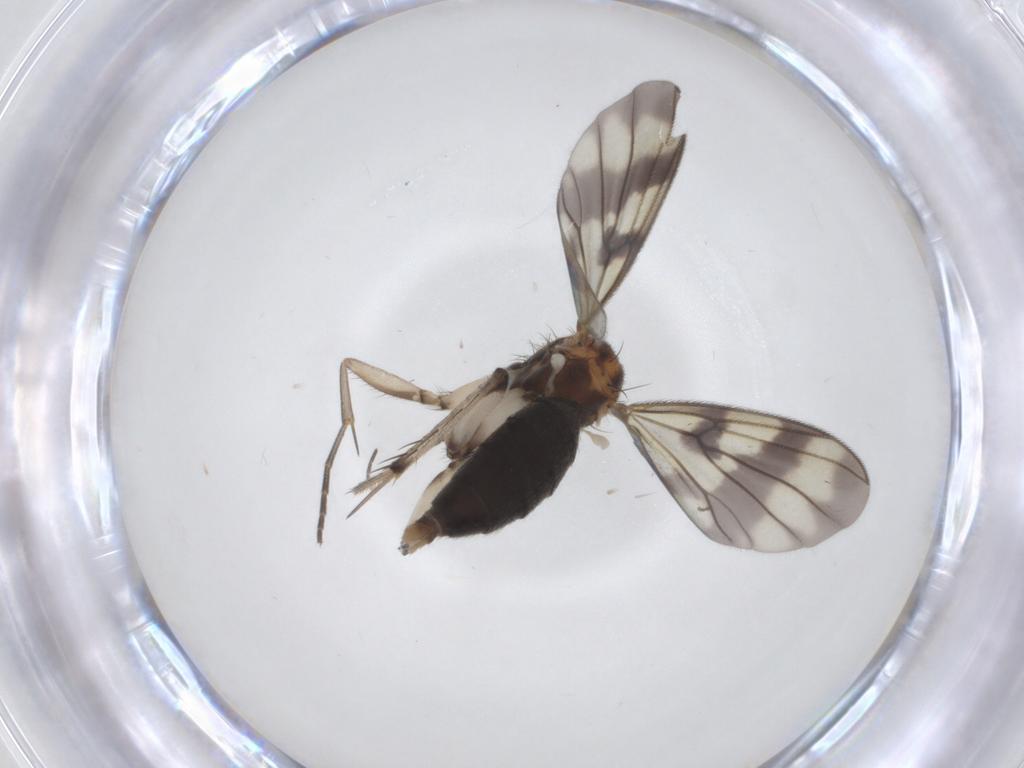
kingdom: Animalia
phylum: Arthropoda
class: Insecta
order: Diptera
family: Mycetophilidae
